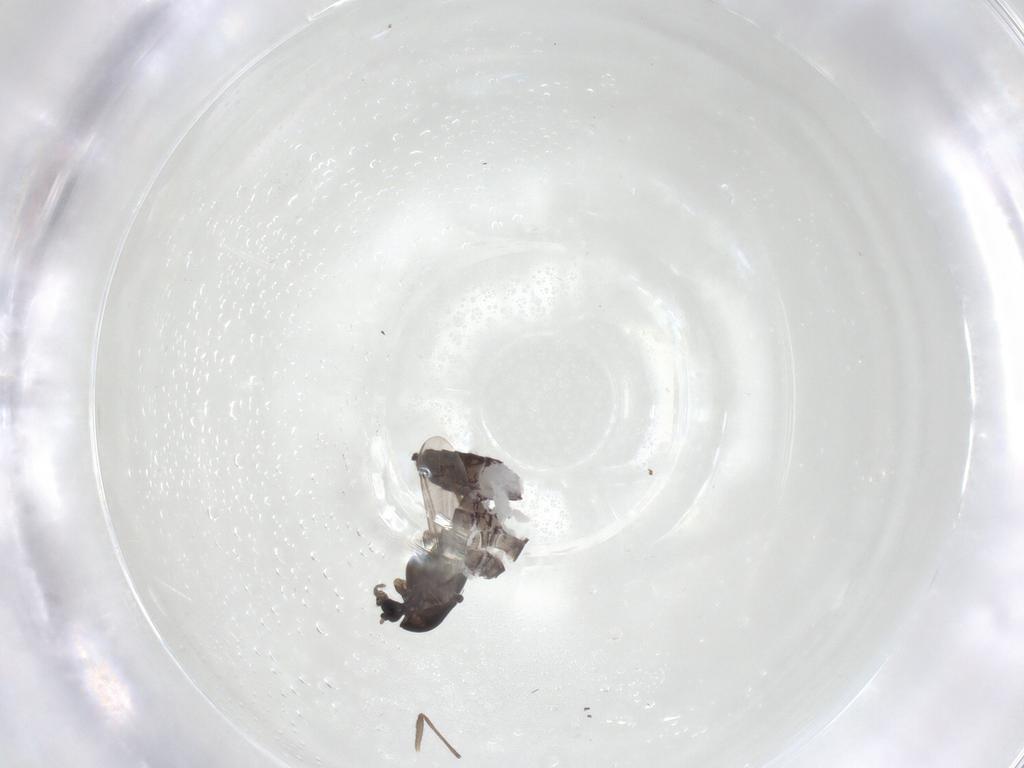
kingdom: Animalia
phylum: Arthropoda
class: Insecta
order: Diptera
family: Chironomidae
